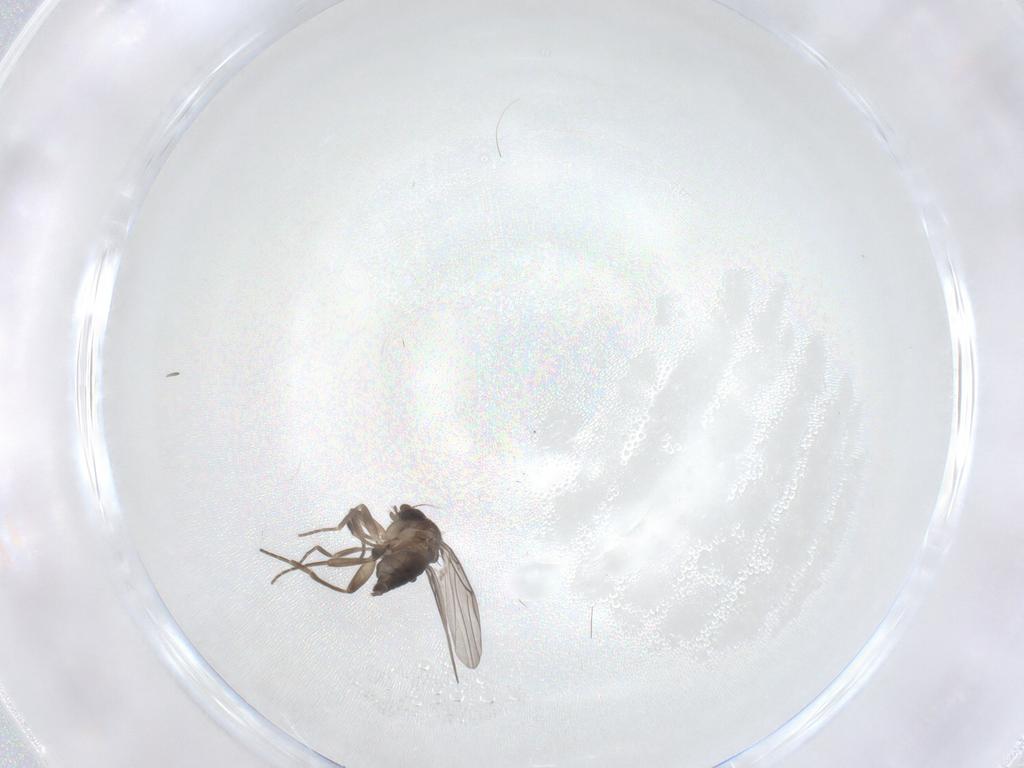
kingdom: Animalia
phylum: Arthropoda
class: Insecta
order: Diptera
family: Phoridae
